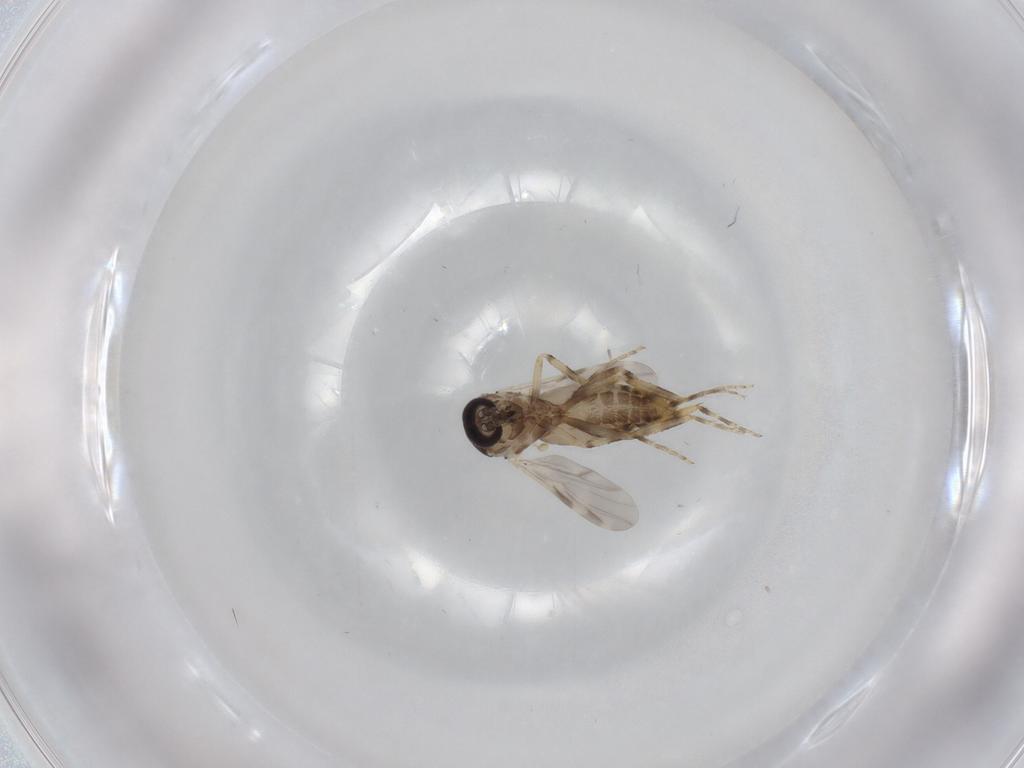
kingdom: Animalia
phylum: Arthropoda
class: Insecta
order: Diptera
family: Ceratopogonidae
